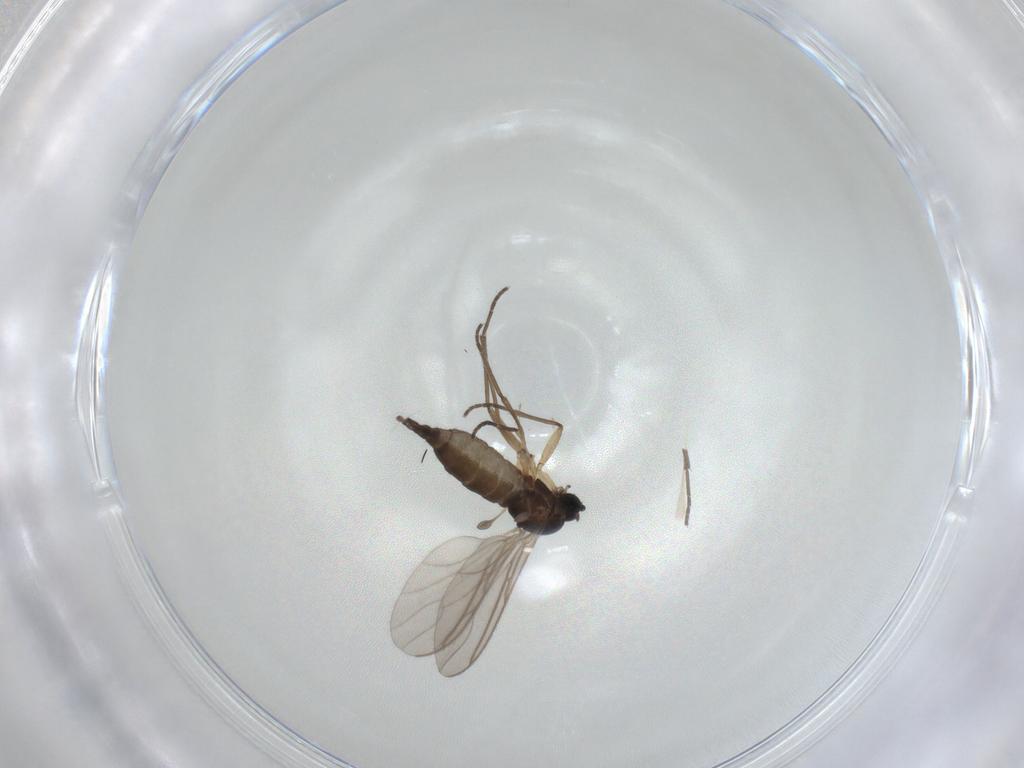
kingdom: Animalia
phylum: Arthropoda
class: Insecta
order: Diptera
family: Sciaridae
